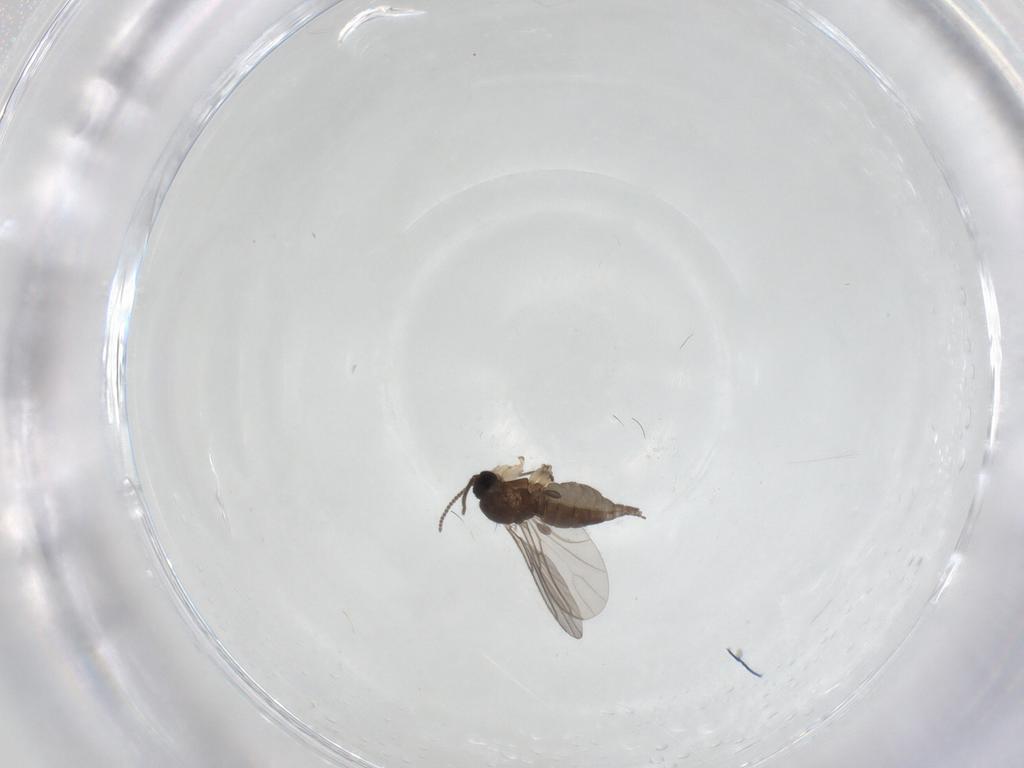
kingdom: Animalia
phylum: Arthropoda
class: Insecta
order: Diptera
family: Sciaridae
